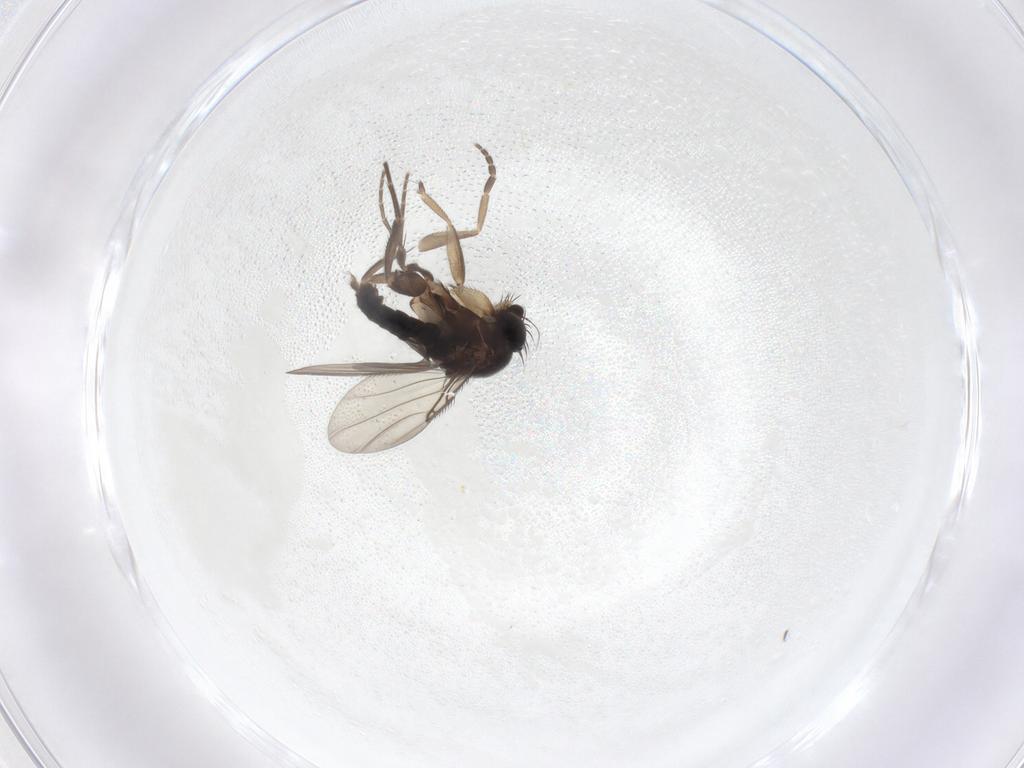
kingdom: Animalia
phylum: Arthropoda
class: Insecta
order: Diptera
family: Phoridae
